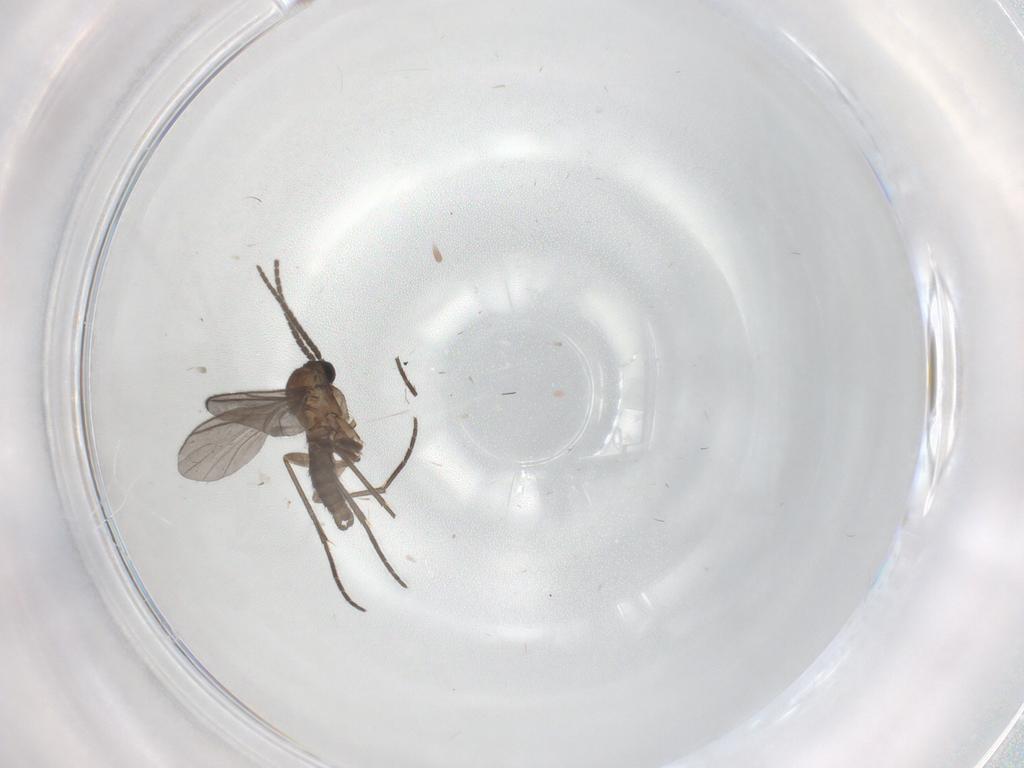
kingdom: Animalia
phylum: Arthropoda
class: Insecta
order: Diptera
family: Sciaridae
